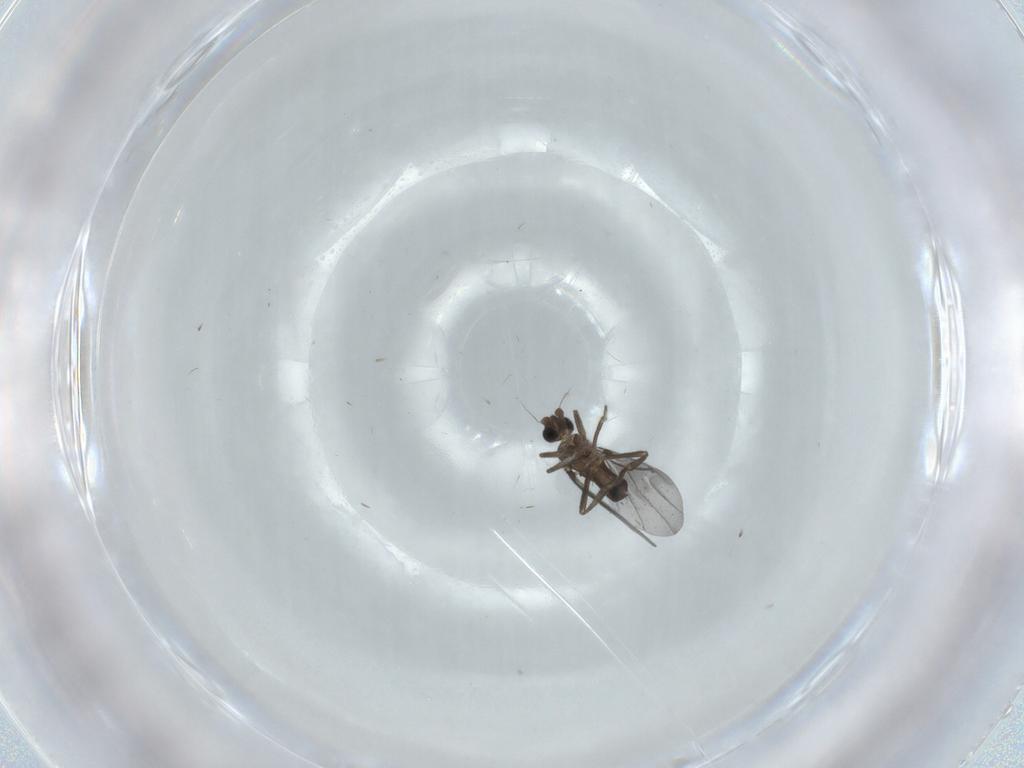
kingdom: Animalia
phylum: Arthropoda
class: Insecta
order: Diptera
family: Phoridae
